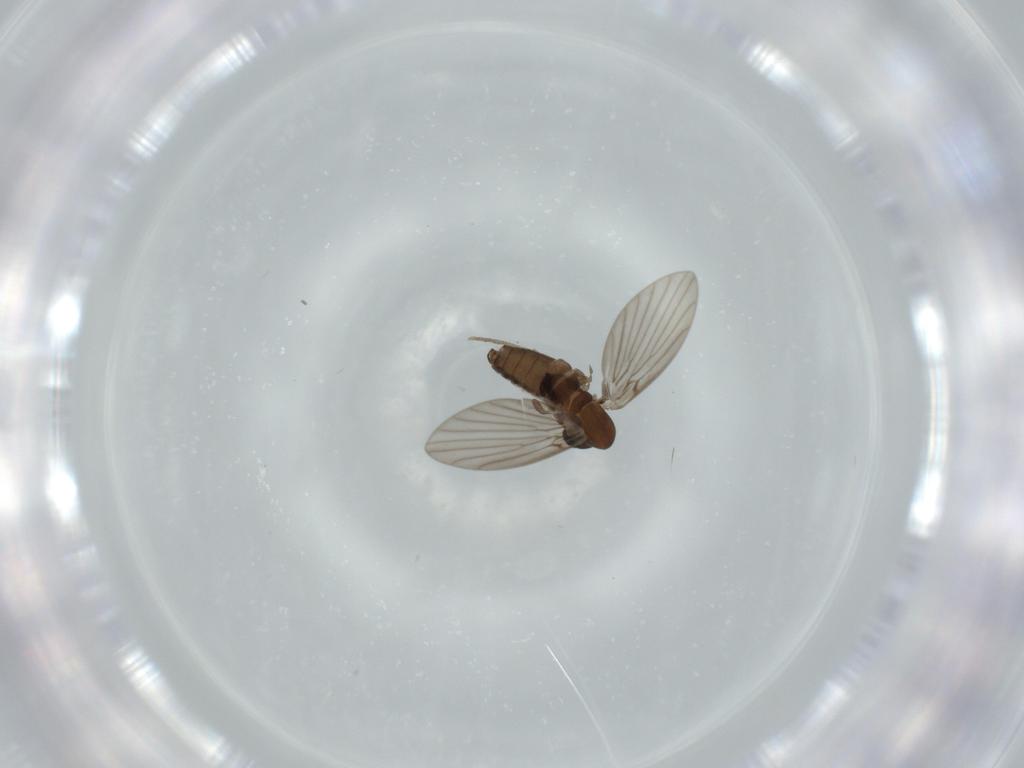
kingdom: Animalia
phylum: Arthropoda
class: Insecta
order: Diptera
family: Psychodidae
